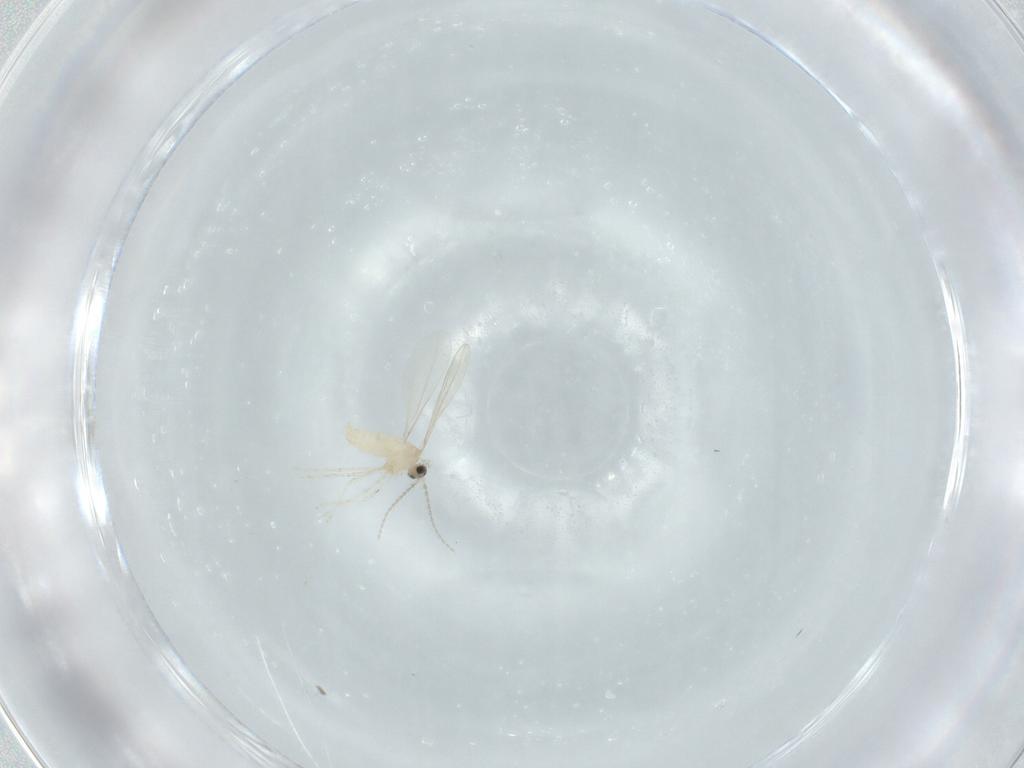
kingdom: Animalia
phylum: Arthropoda
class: Insecta
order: Diptera
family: Cecidomyiidae
